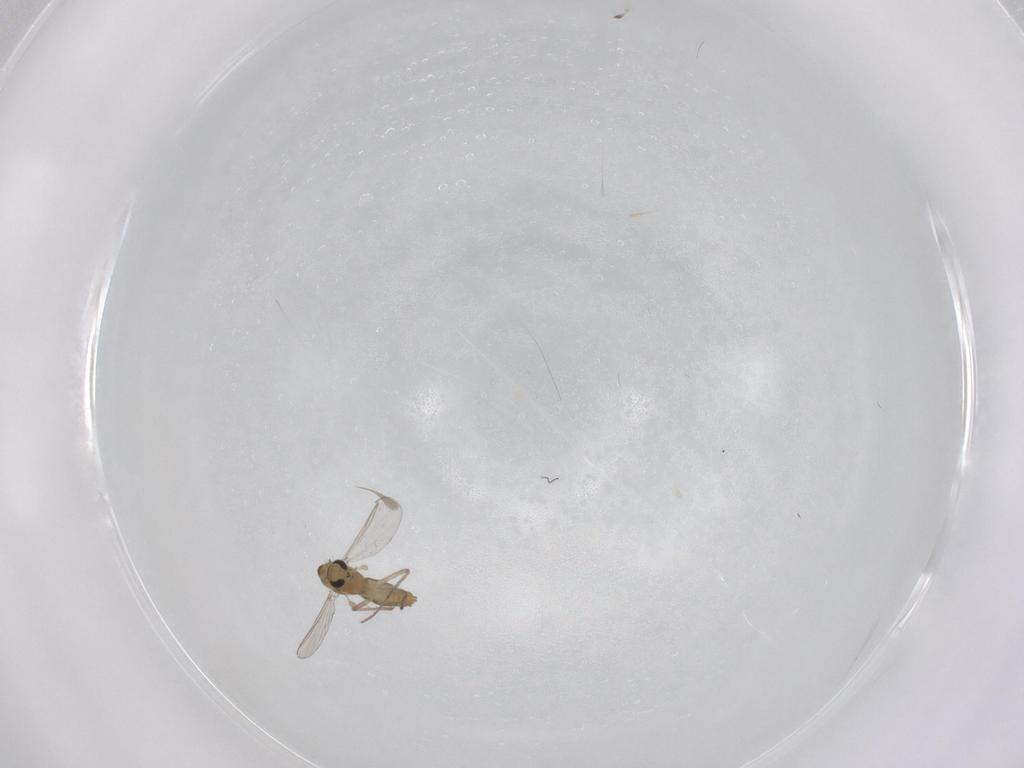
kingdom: Animalia
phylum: Arthropoda
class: Insecta
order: Diptera
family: Chironomidae
